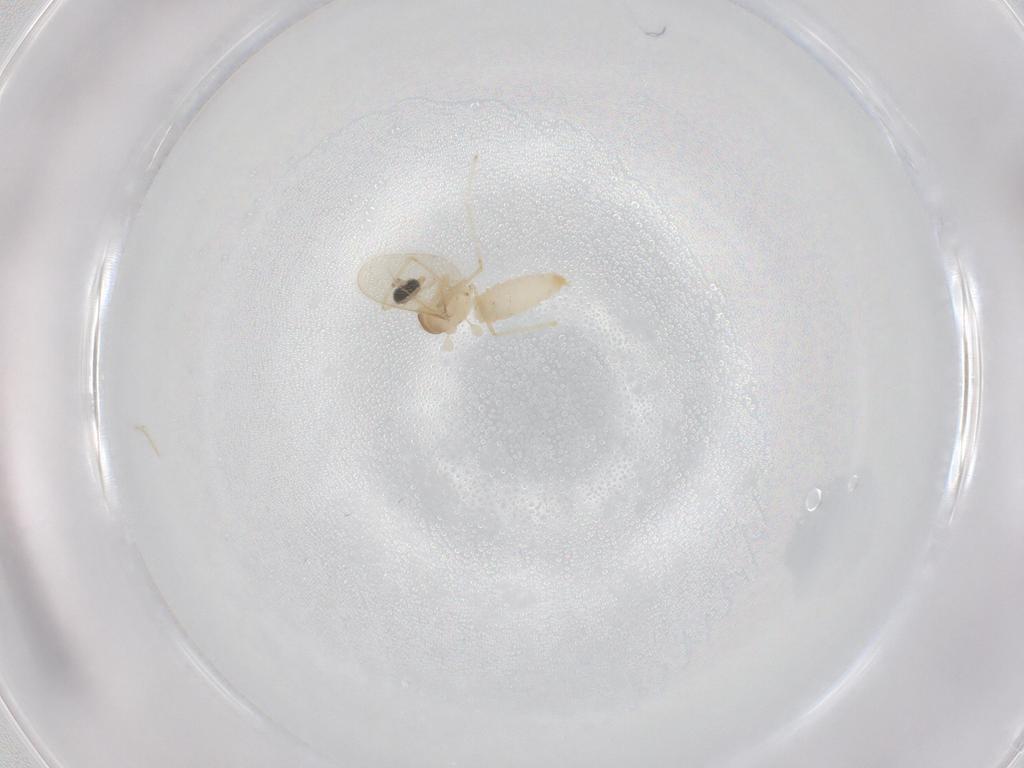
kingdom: Animalia
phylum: Arthropoda
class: Insecta
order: Diptera
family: Cecidomyiidae
